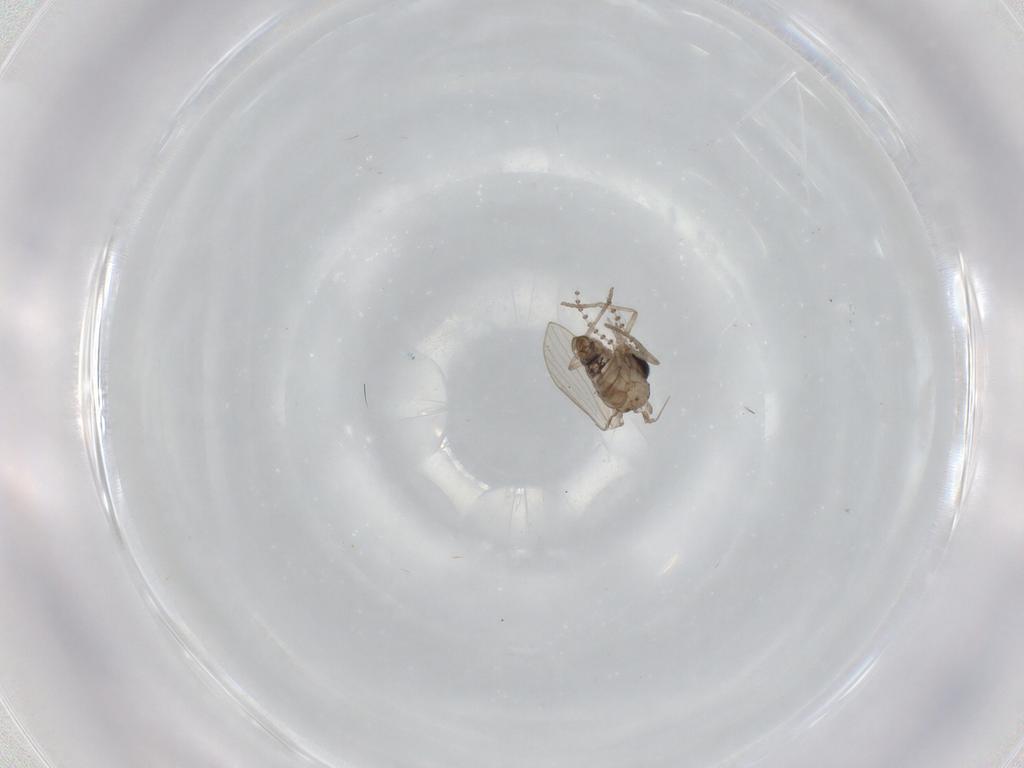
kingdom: Animalia
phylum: Arthropoda
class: Insecta
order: Diptera
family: Psychodidae
